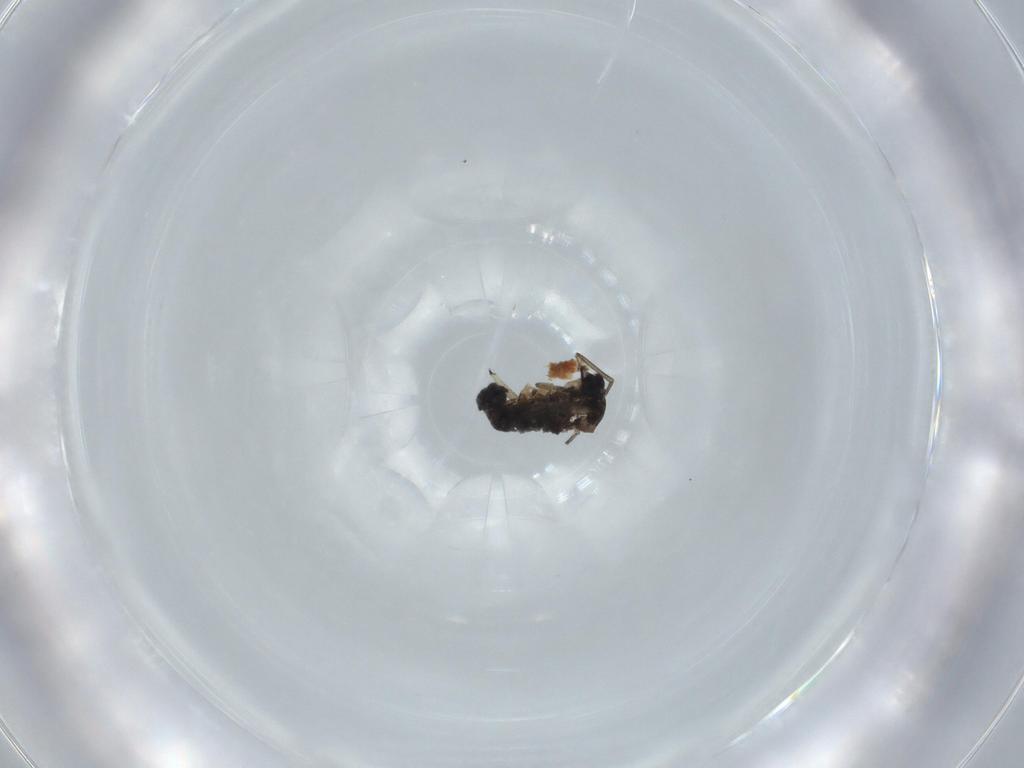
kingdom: Animalia
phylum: Arthropoda
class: Insecta
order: Diptera
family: Sciaridae
